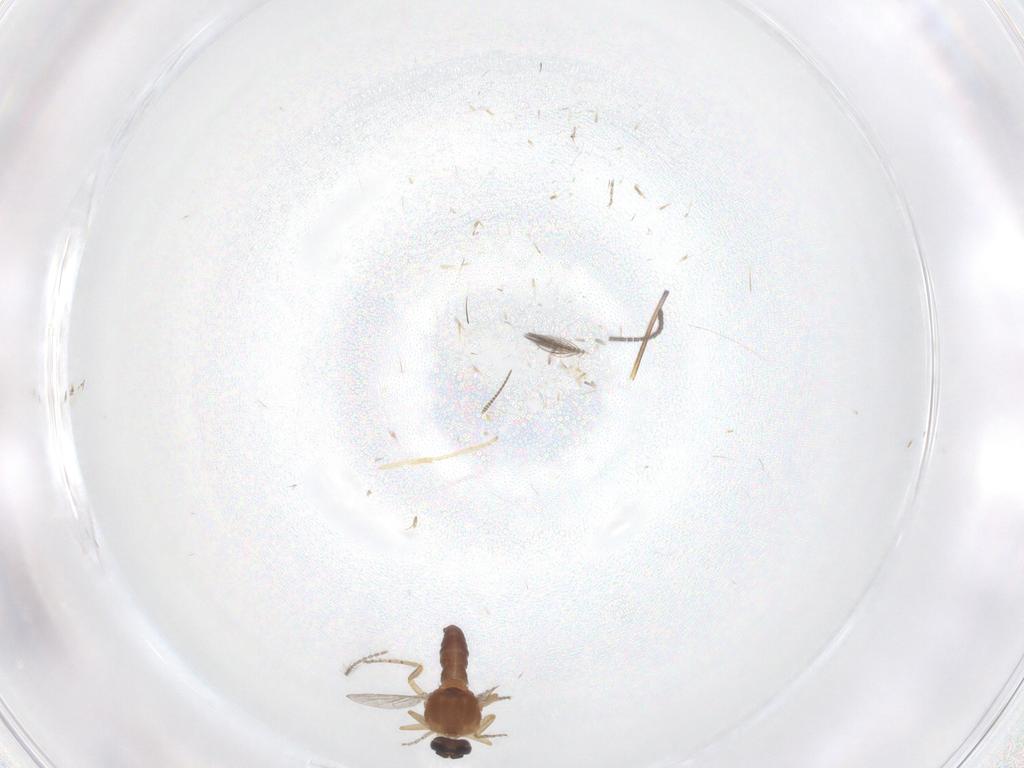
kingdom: Animalia
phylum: Arthropoda
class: Insecta
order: Diptera
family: Ceratopogonidae
